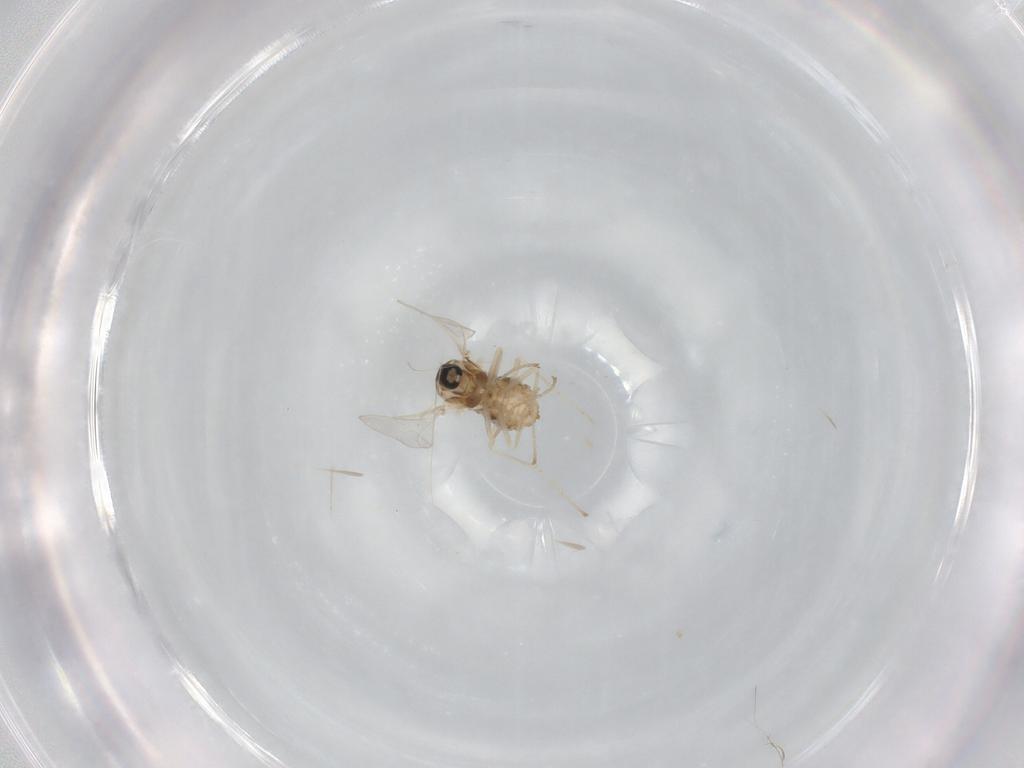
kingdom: Animalia
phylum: Arthropoda
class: Insecta
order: Diptera
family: Cecidomyiidae
